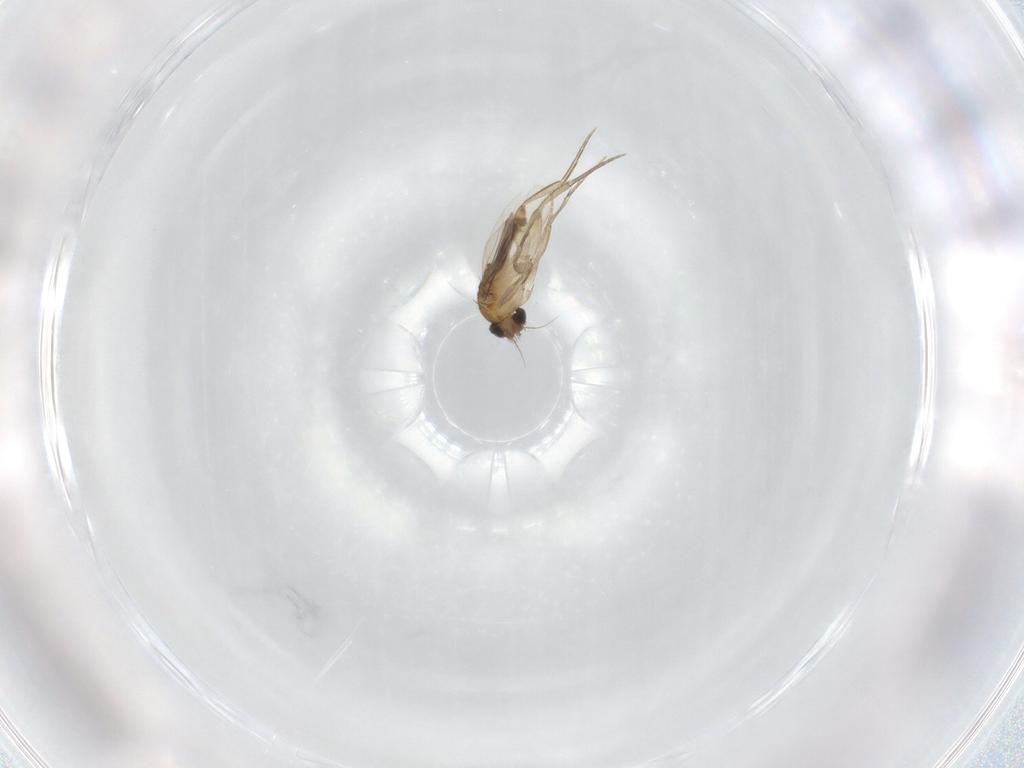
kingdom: Animalia
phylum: Arthropoda
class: Insecta
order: Diptera
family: Phoridae
